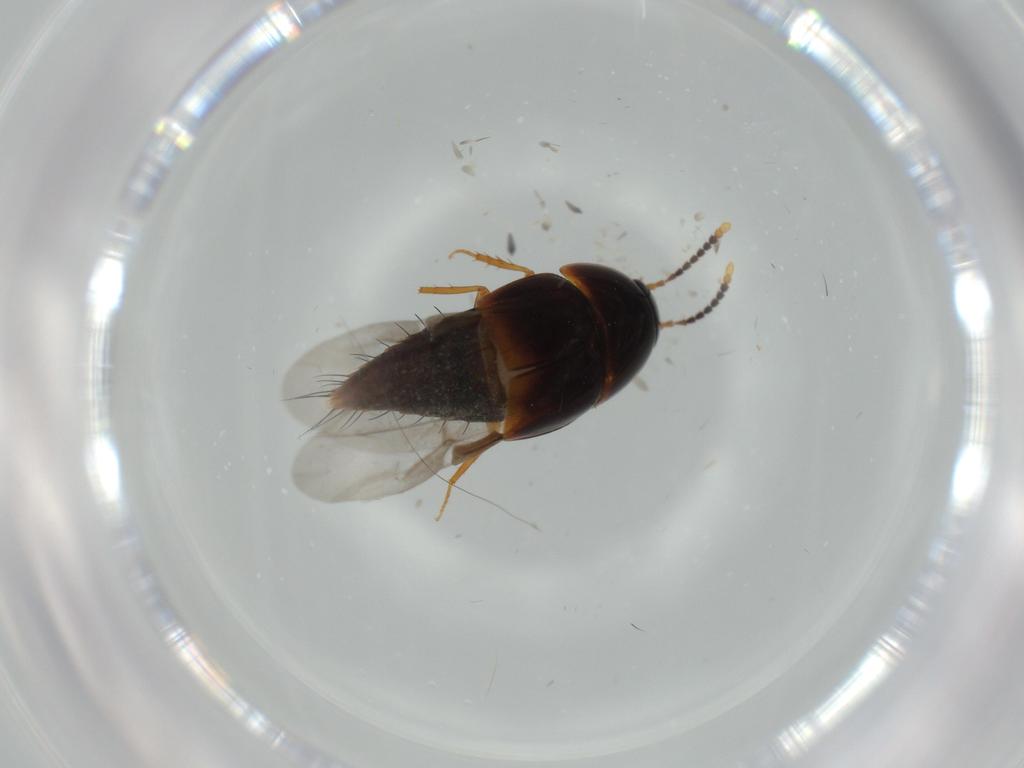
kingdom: Animalia
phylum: Arthropoda
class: Insecta
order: Coleoptera
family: Staphylinidae
